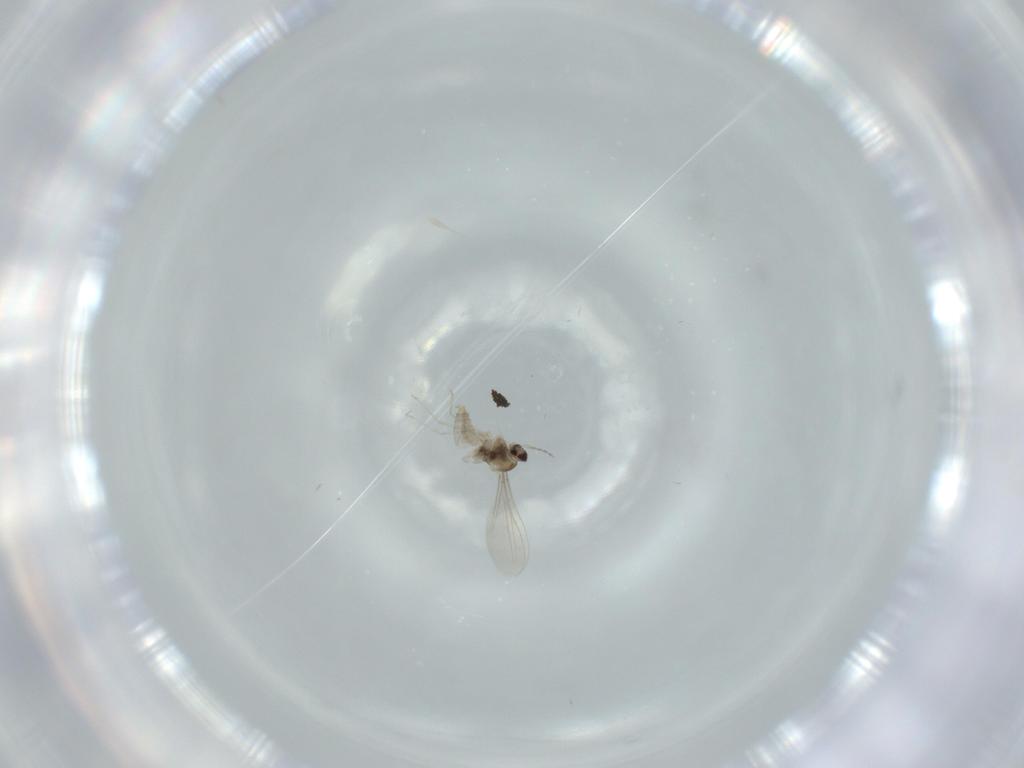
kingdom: Animalia
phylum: Arthropoda
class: Insecta
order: Diptera
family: Cecidomyiidae
